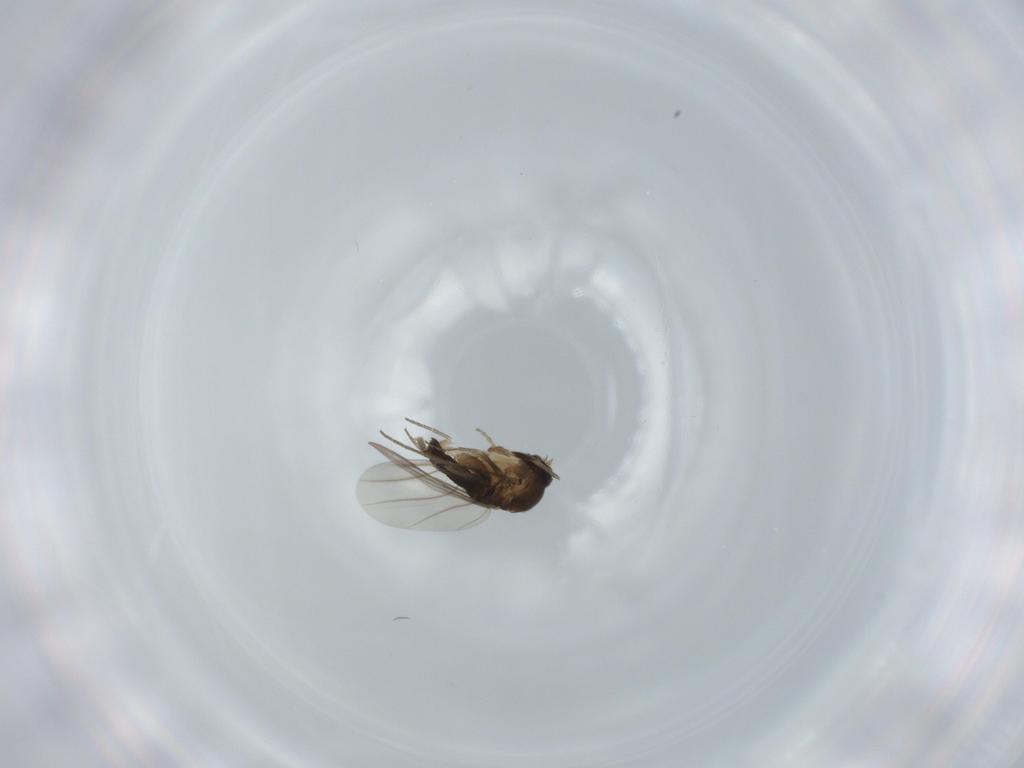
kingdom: Animalia
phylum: Arthropoda
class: Insecta
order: Diptera
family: Phoridae
